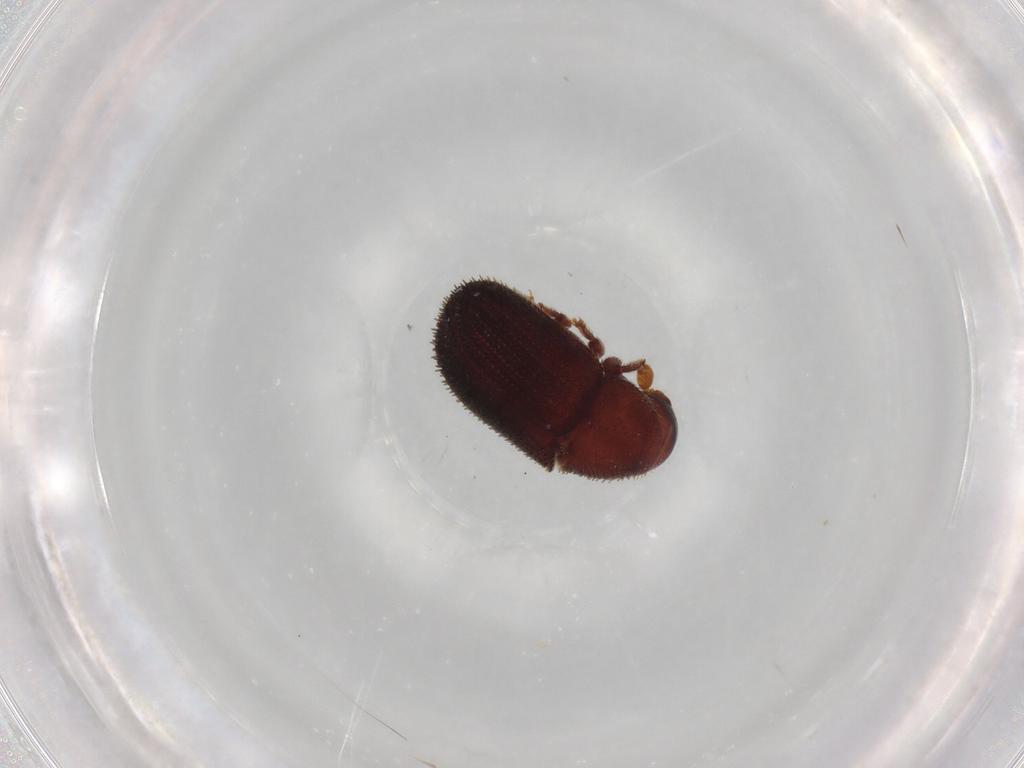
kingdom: Animalia
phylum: Arthropoda
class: Insecta
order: Coleoptera
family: Curculionidae
